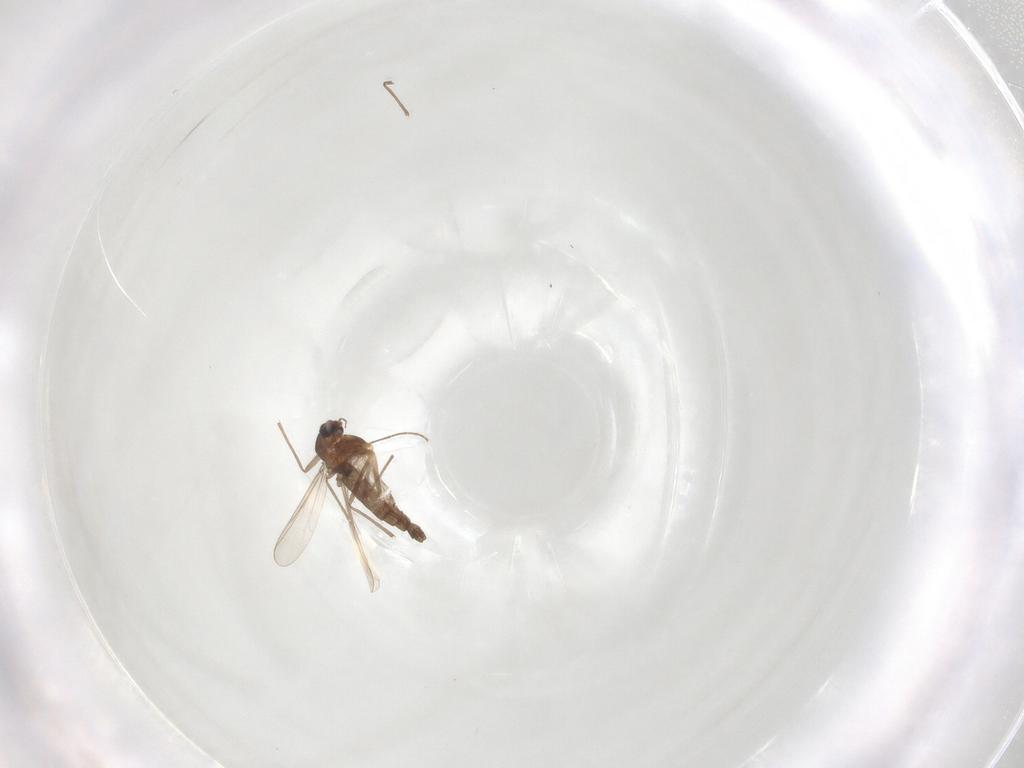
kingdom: Animalia
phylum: Arthropoda
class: Insecta
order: Diptera
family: Chironomidae
